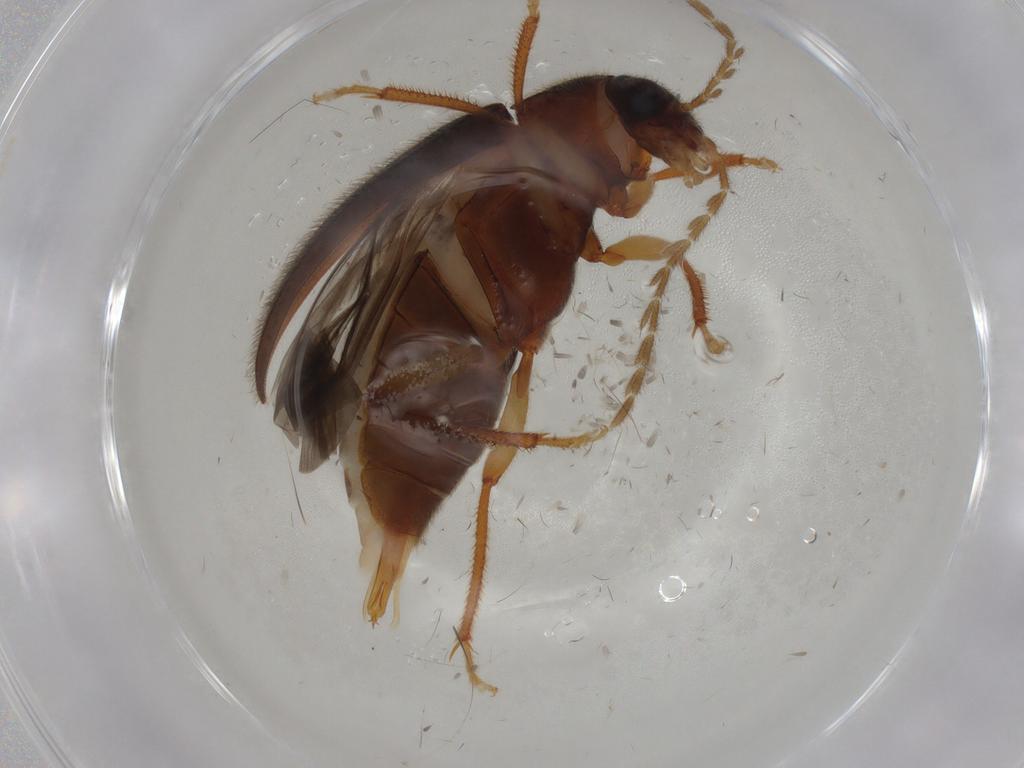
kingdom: Animalia
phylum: Arthropoda
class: Insecta
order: Coleoptera
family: Ptilodactylidae
